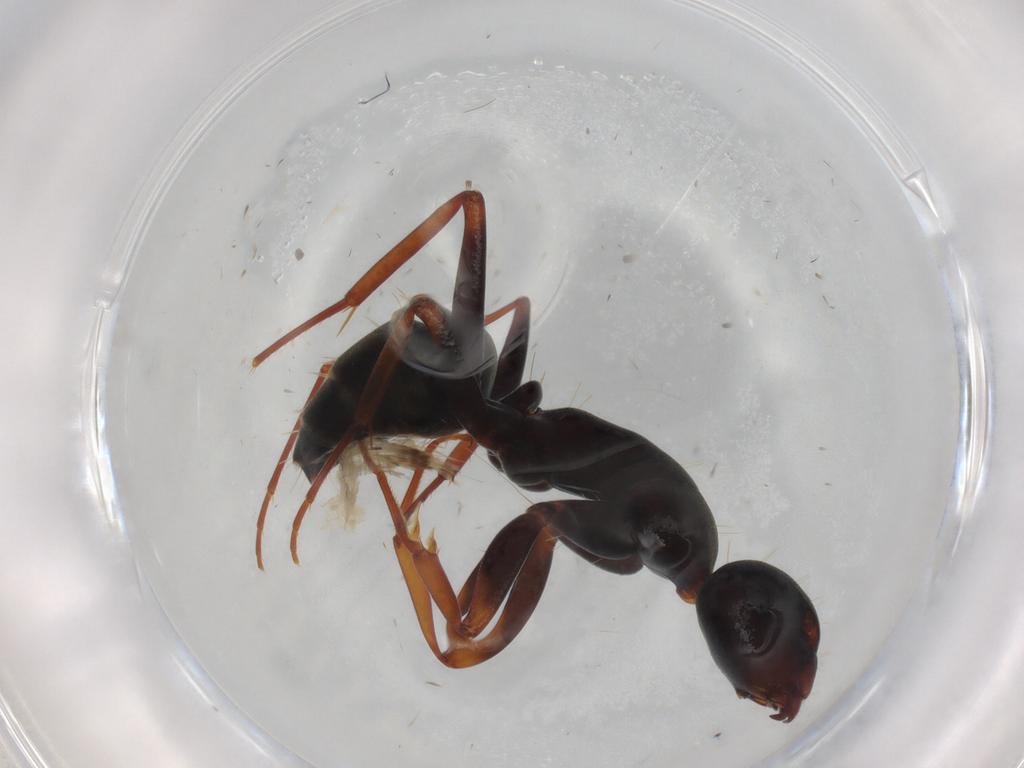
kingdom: Animalia
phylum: Arthropoda
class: Insecta
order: Hymenoptera
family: Formicidae
